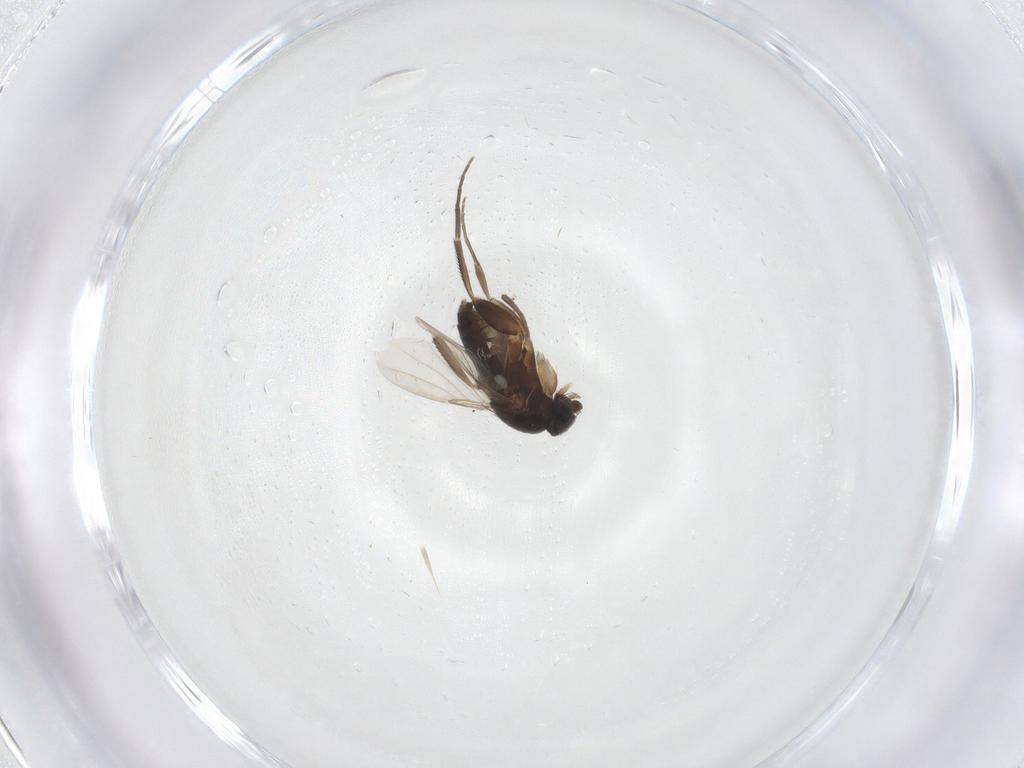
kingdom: Animalia
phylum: Arthropoda
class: Insecta
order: Diptera
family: Phoridae
